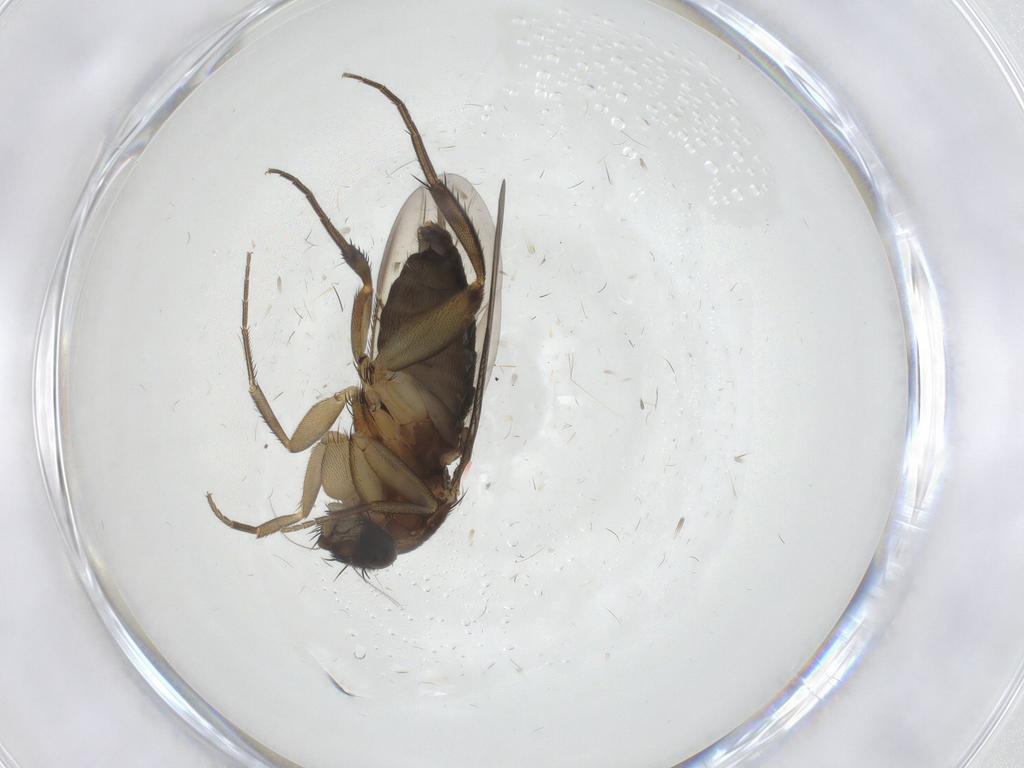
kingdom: Animalia
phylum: Arthropoda
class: Insecta
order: Diptera
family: Phoridae
